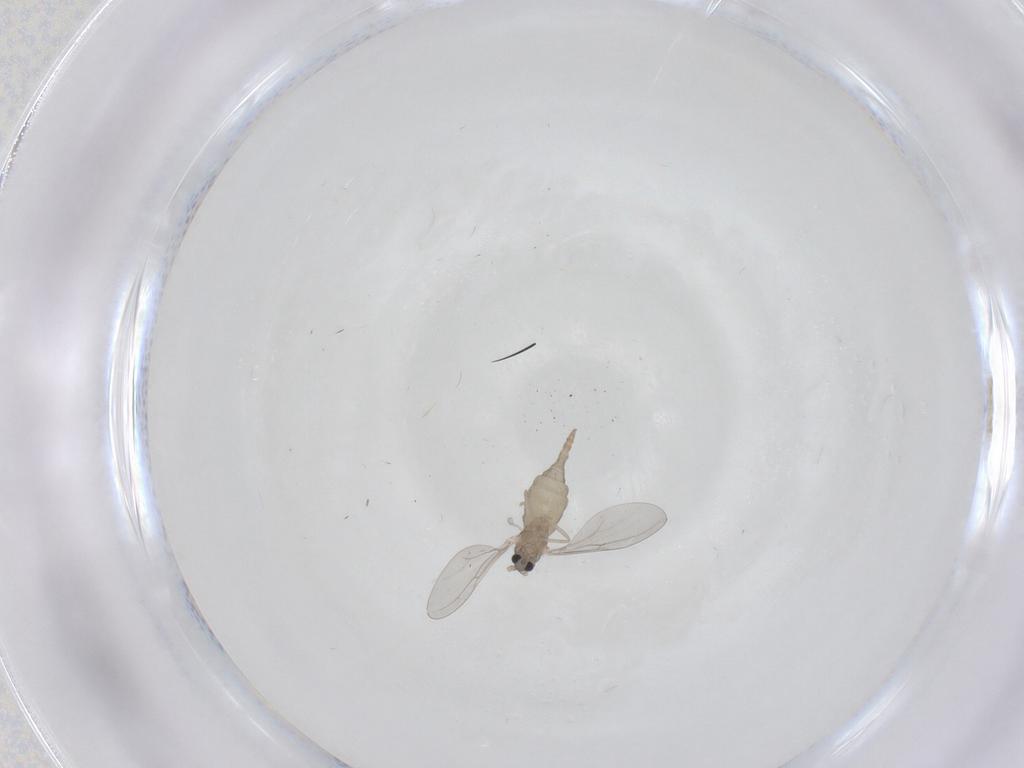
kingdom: Animalia
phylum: Arthropoda
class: Insecta
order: Diptera
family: Cecidomyiidae
